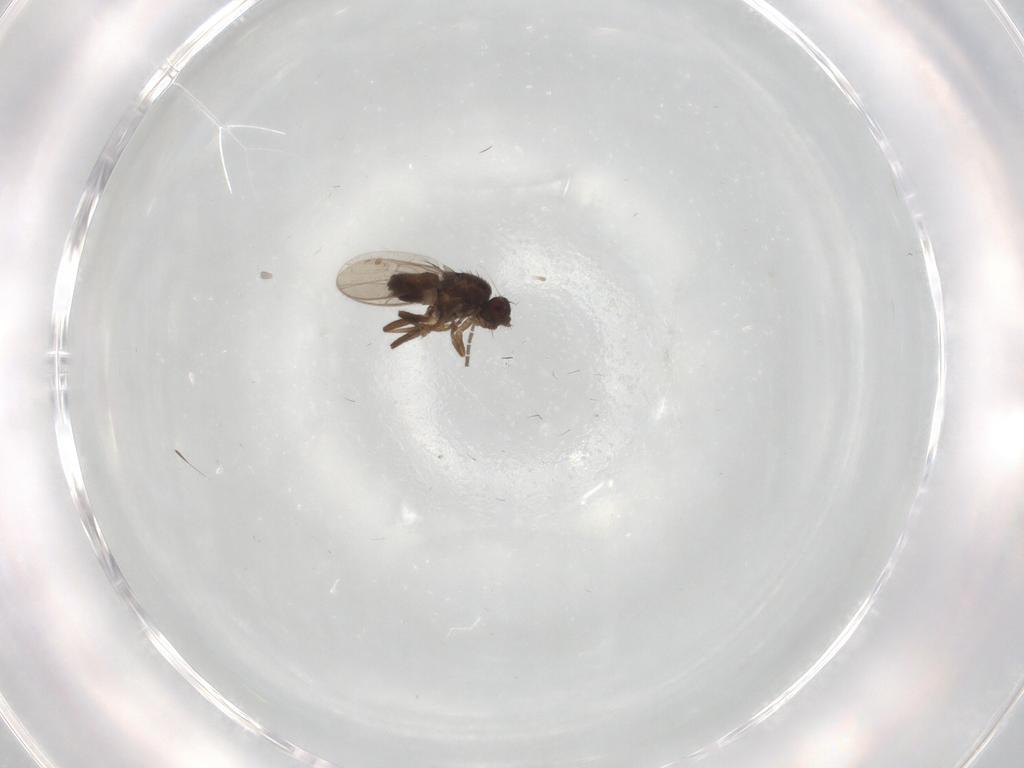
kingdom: Animalia
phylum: Arthropoda
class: Insecta
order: Diptera
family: Sphaeroceridae
